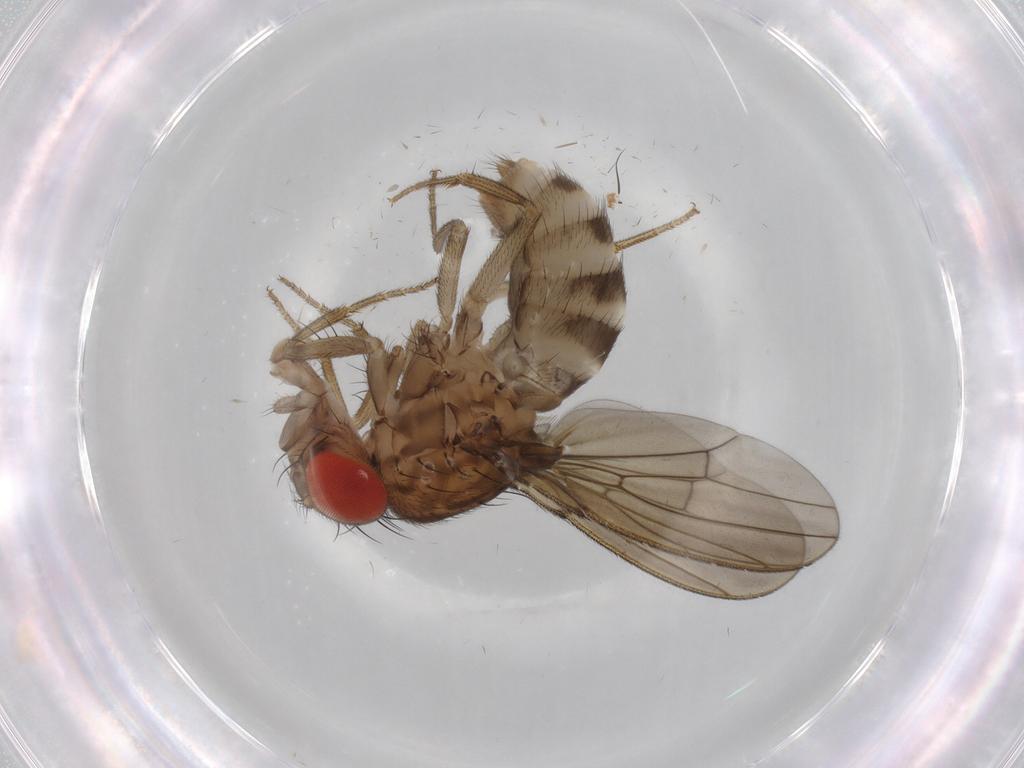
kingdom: Animalia
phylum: Arthropoda
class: Insecta
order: Diptera
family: Drosophilidae
